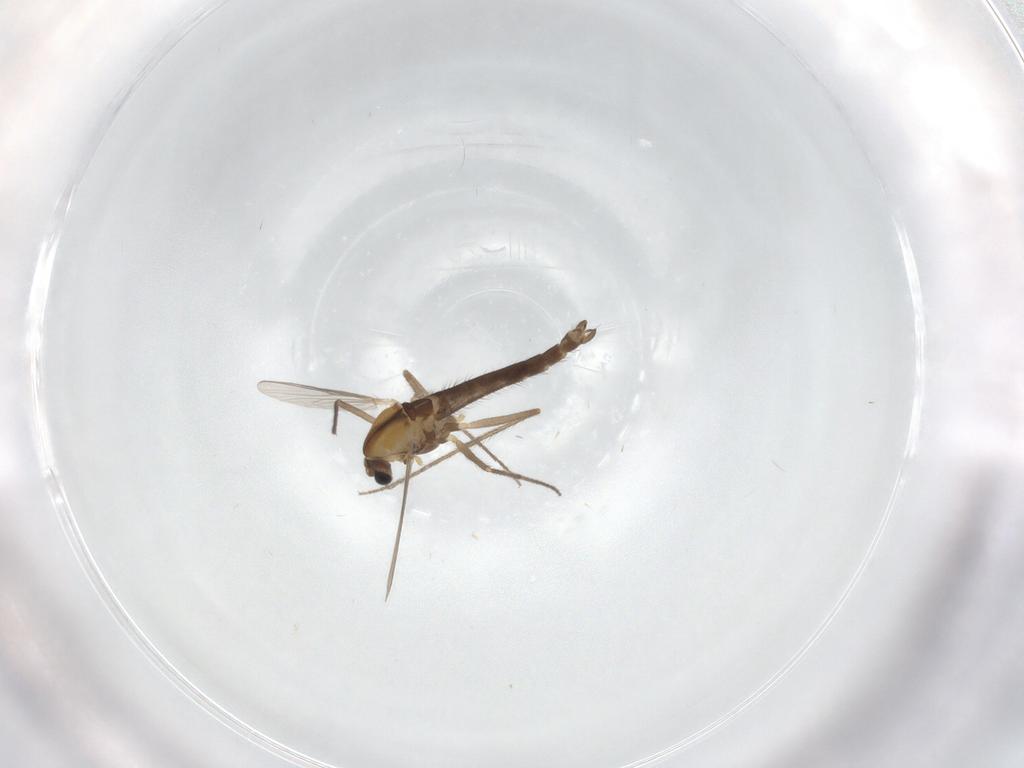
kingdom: Animalia
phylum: Arthropoda
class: Insecta
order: Diptera
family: Chironomidae
